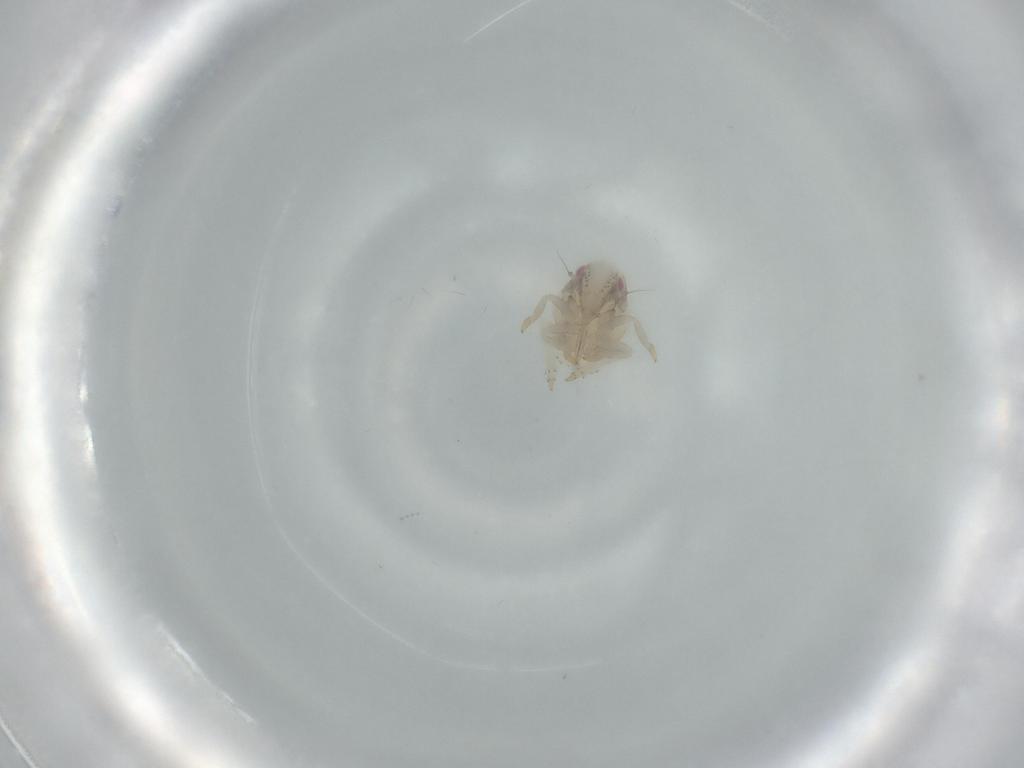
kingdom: Animalia
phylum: Arthropoda
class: Insecta
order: Hemiptera
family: Acanaloniidae
